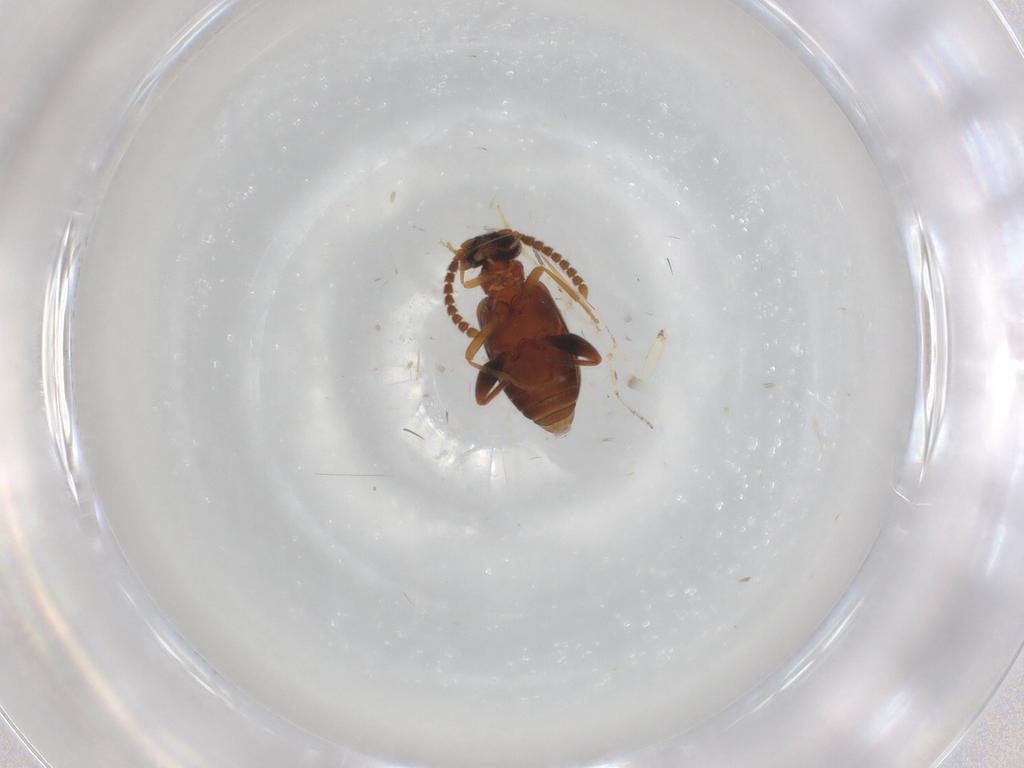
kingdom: Animalia
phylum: Arthropoda
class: Insecta
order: Coleoptera
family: Aderidae
